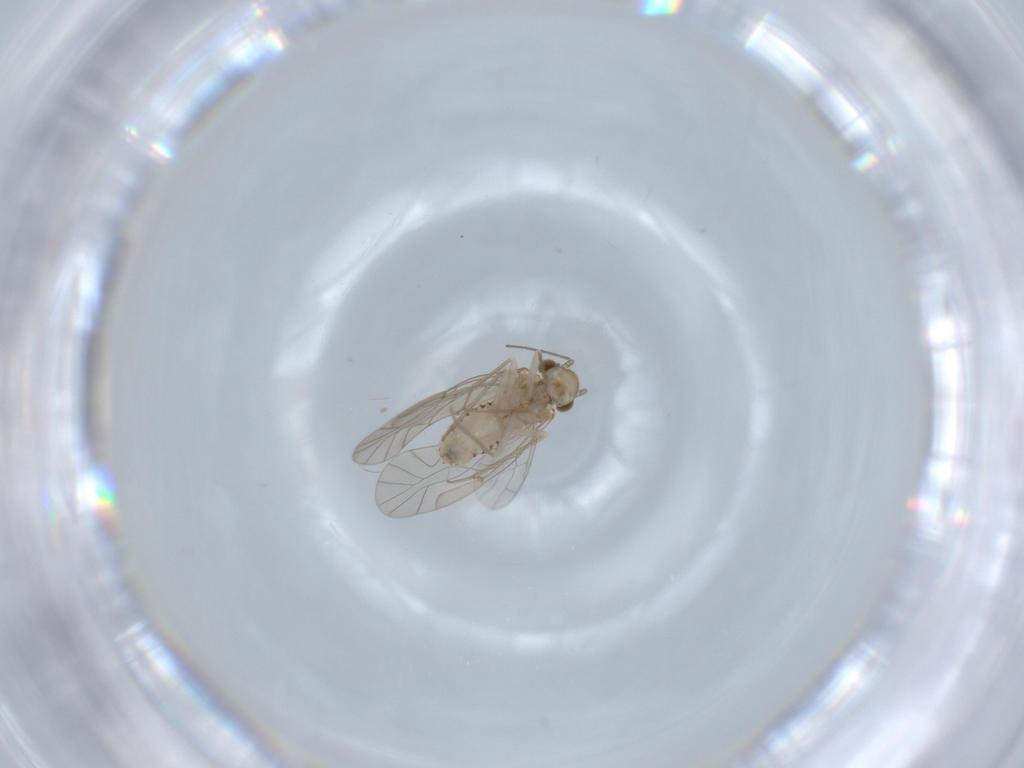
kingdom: Animalia
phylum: Arthropoda
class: Insecta
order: Psocodea
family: Lachesillidae
